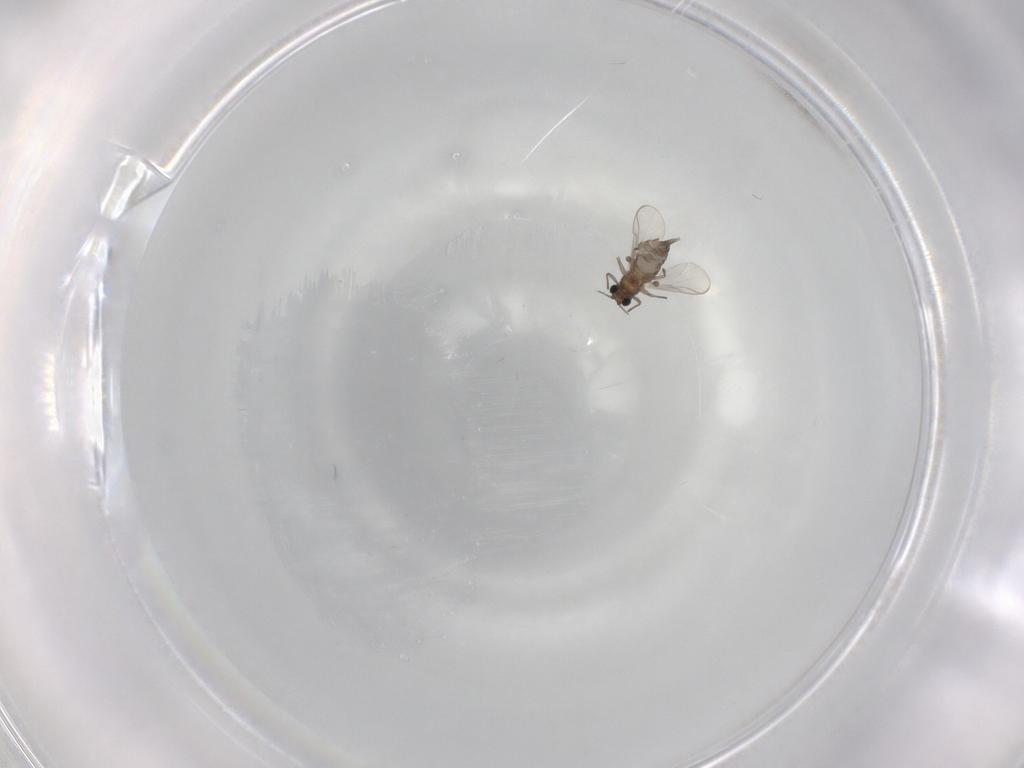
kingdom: Animalia
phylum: Arthropoda
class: Insecta
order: Diptera
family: Chironomidae
